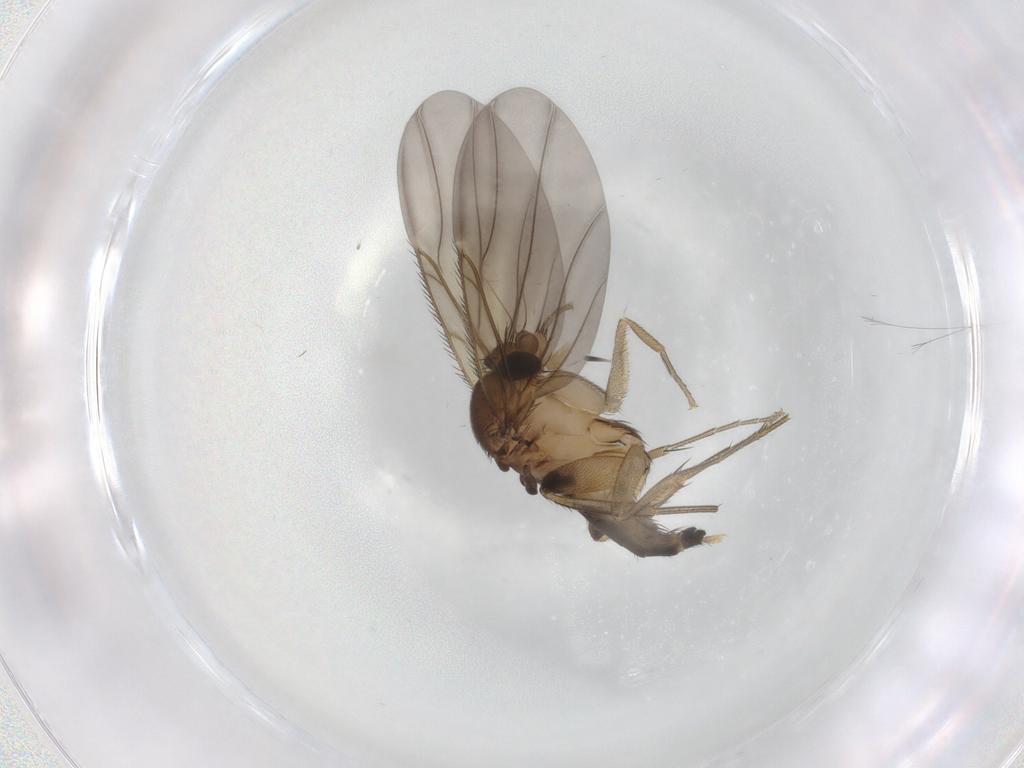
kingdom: Animalia
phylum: Arthropoda
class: Insecta
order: Diptera
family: Phoridae
